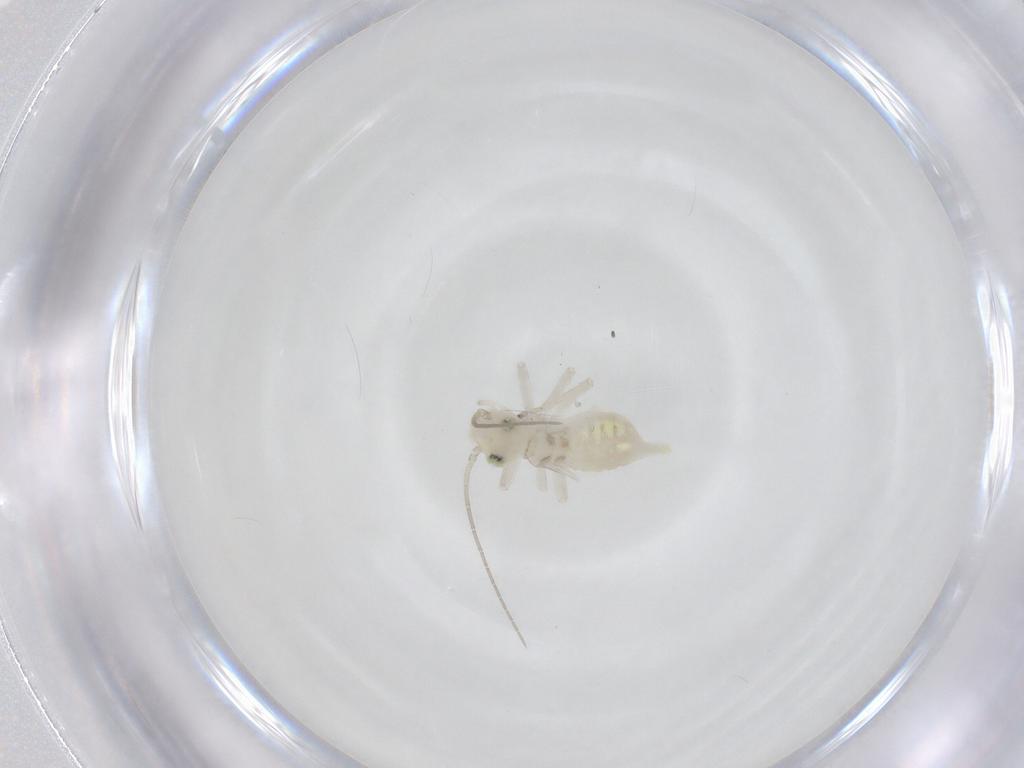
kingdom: Animalia
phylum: Arthropoda
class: Insecta
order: Psocodea
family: Caeciliusidae
